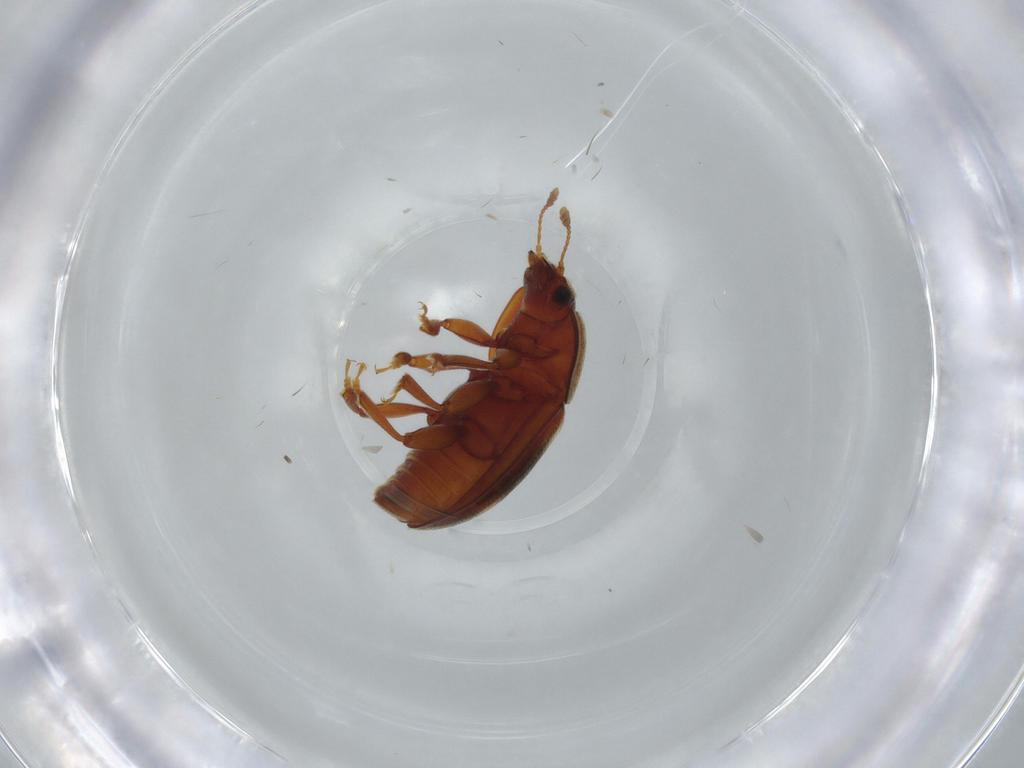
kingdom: Animalia
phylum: Arthropoda
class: Insecta
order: Coleoptera
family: Nitidulidae
